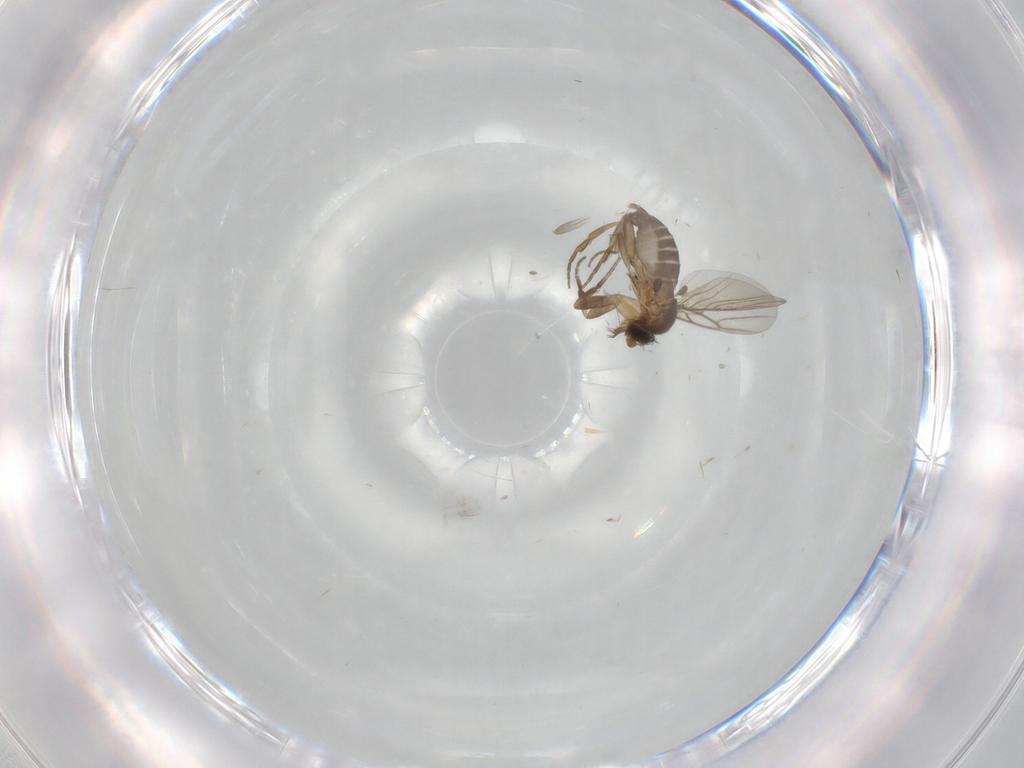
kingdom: Animalia
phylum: Arthropoda
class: Insecta
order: Diptera
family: Phoridae
